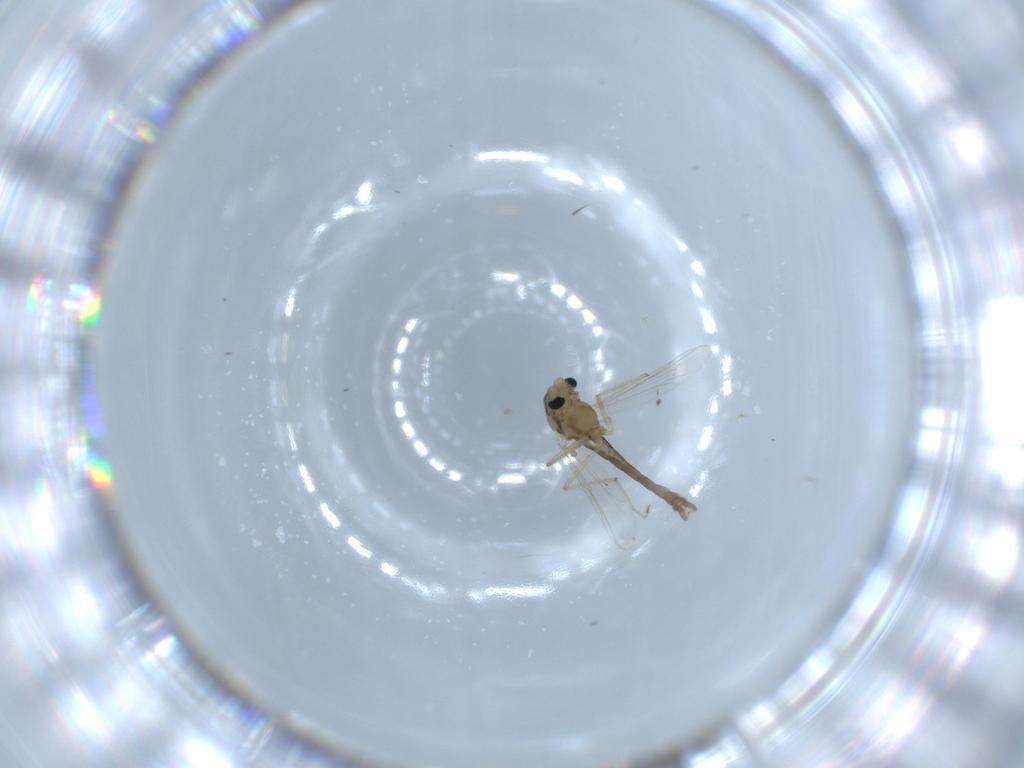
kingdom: Animalia
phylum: Arthropoda
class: Insecta
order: Diptera
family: Chironomidae
